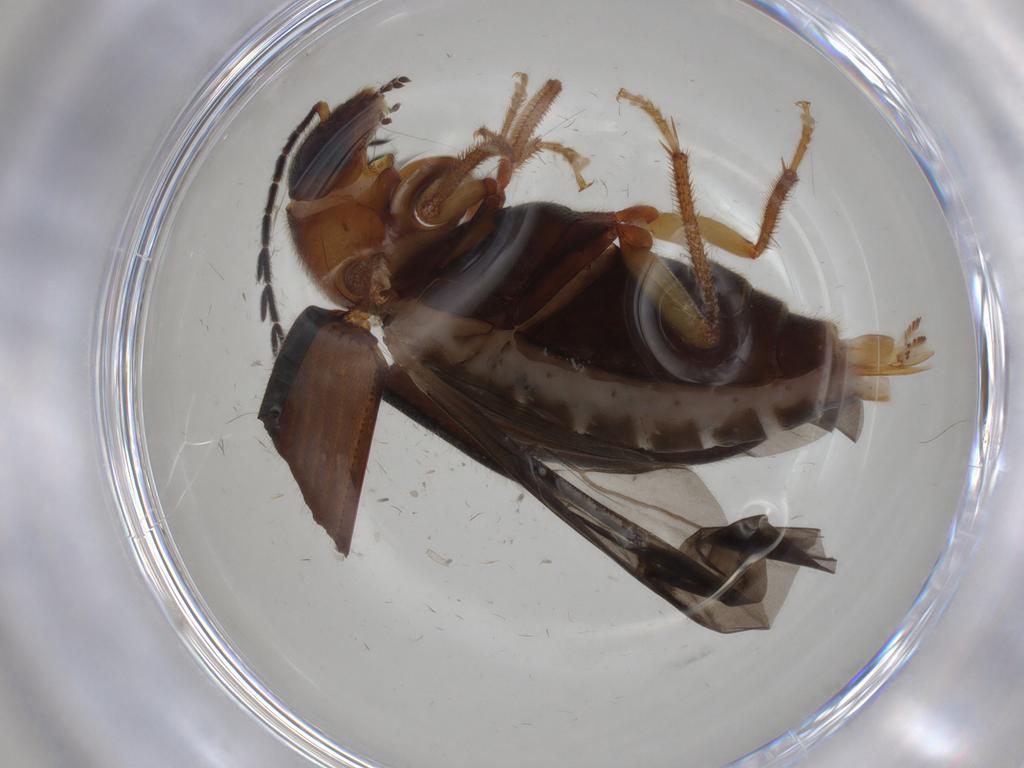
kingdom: Animalia
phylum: Arthropoda
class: Insecta
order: Coleoptera
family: Ptilodactylidae
